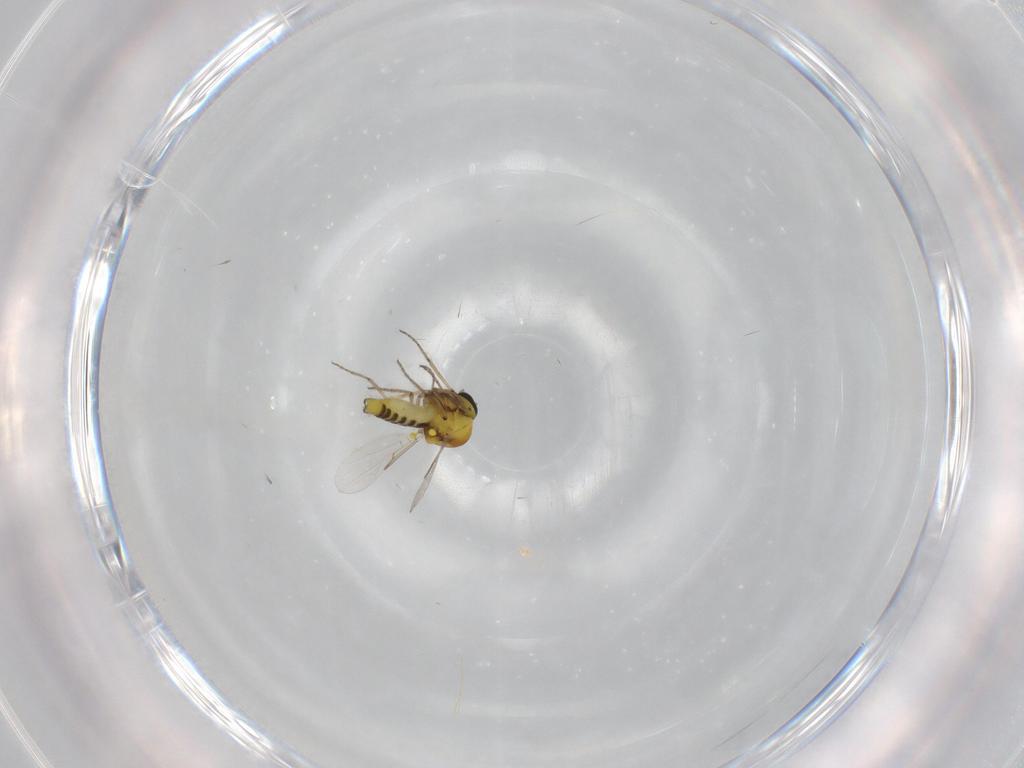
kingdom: Animalia
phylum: Arthropoda
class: Insecta
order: Diptera
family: Ceratopogonidae
